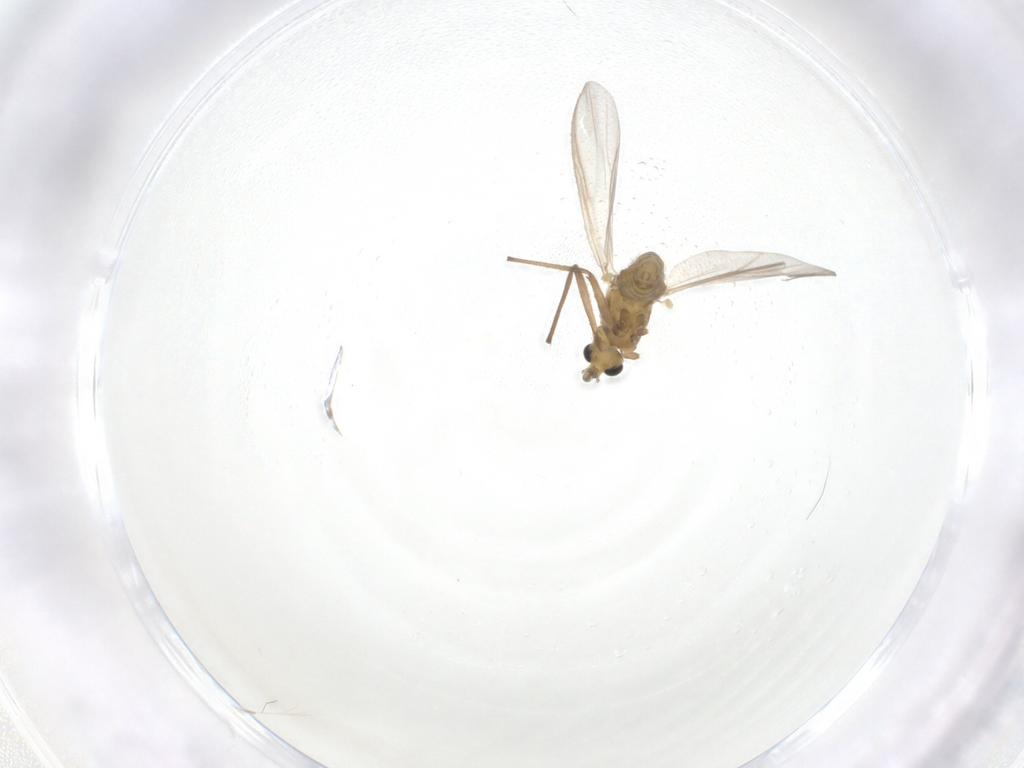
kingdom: Animalia
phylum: Arthropoda
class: Insecta
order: Diptera
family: Chironomidae
